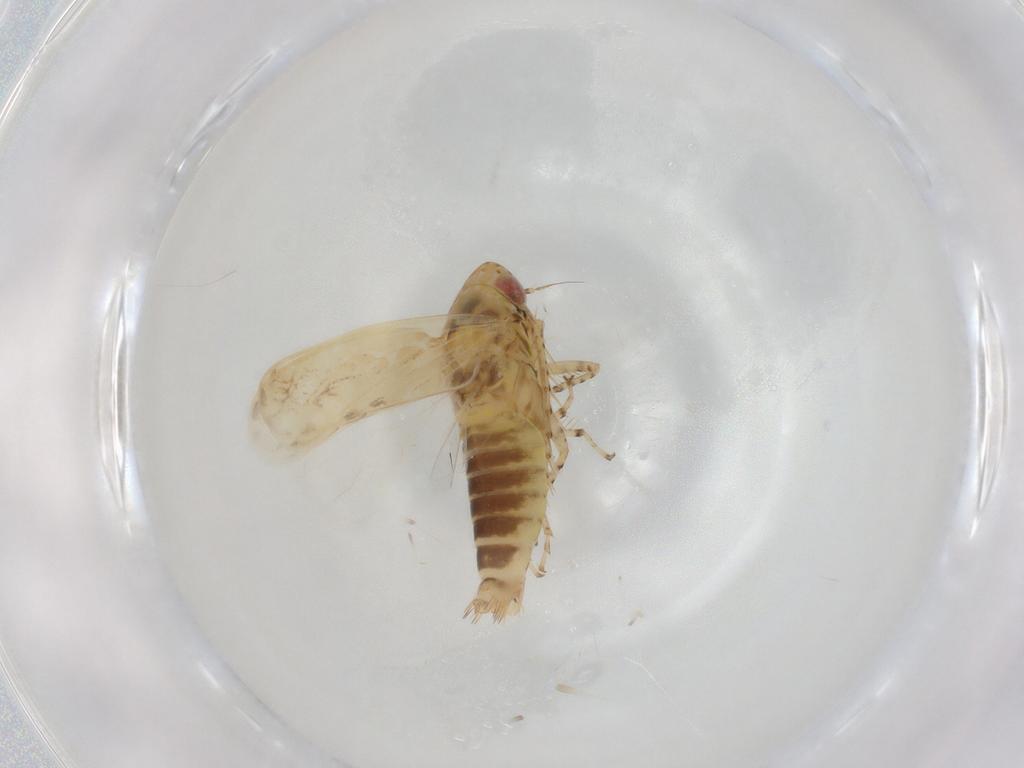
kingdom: Animalia
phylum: Arthropoda
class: Insecta
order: Hemiptera
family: Cicadellidae
